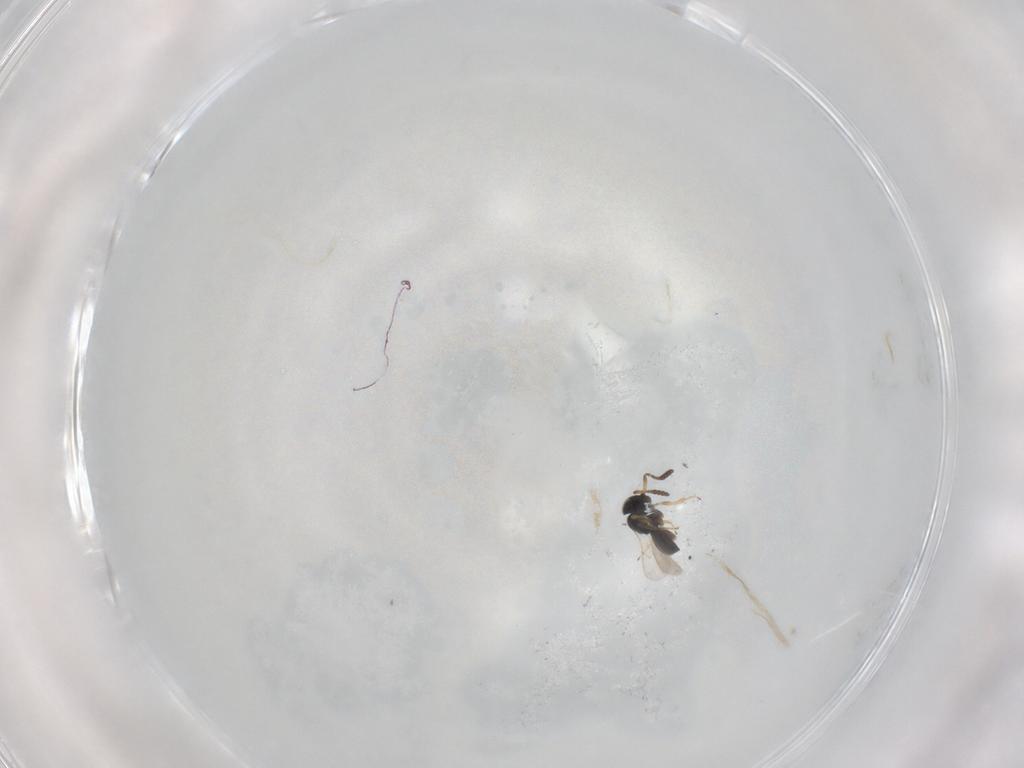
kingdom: Animalia
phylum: Arthropoda
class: Insecta
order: Hymenoptera
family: Scelionidae
